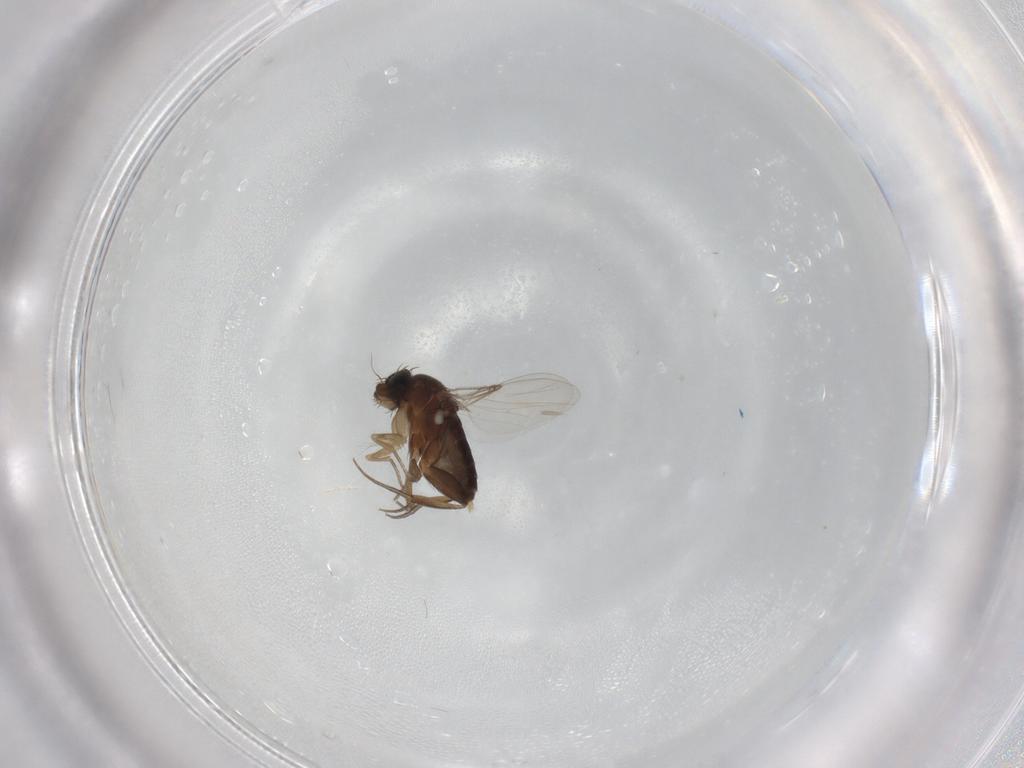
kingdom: Animalia
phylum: Arthropoda
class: Insecta
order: Diptera
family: Phoridae
